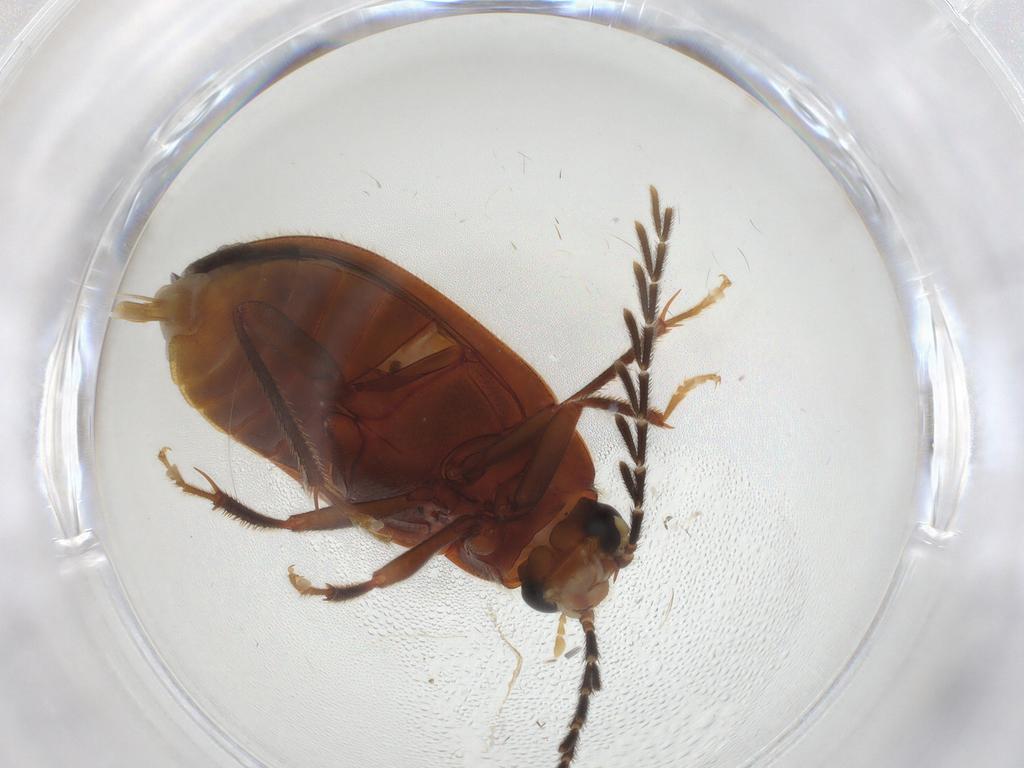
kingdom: Animalia
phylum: Arthropoda
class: Insecta
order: Coleoptera
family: Ptilodactylidae
